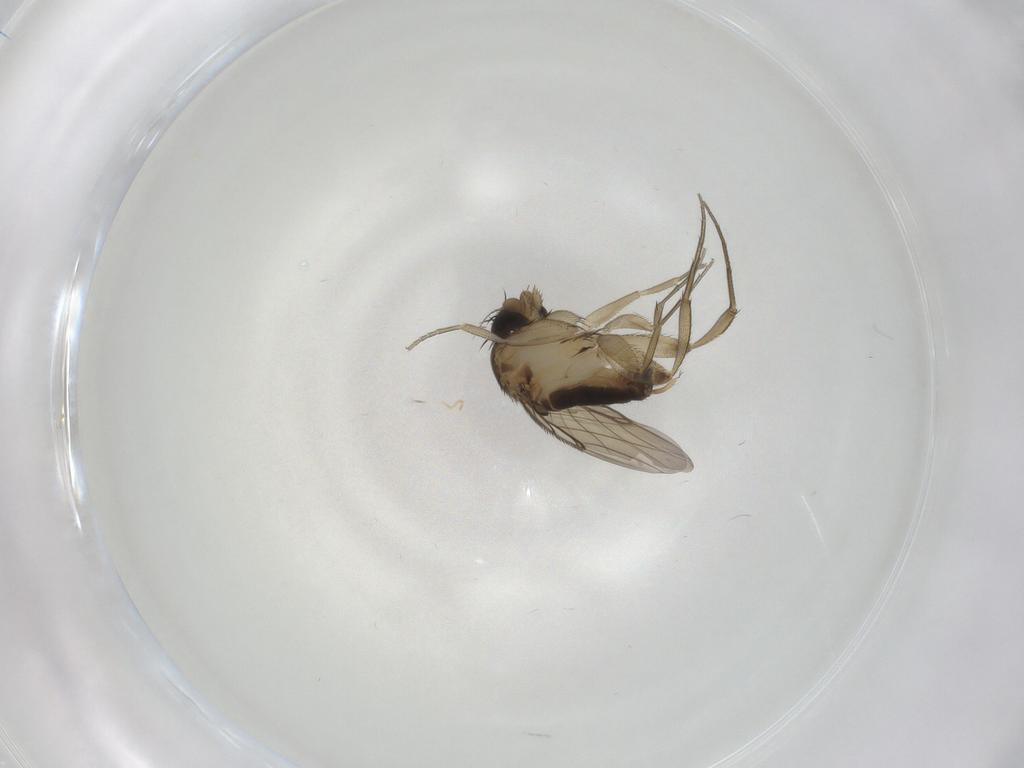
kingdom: Animalia
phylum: Arthropoda
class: Insecta
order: Diptera
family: Phoridae
